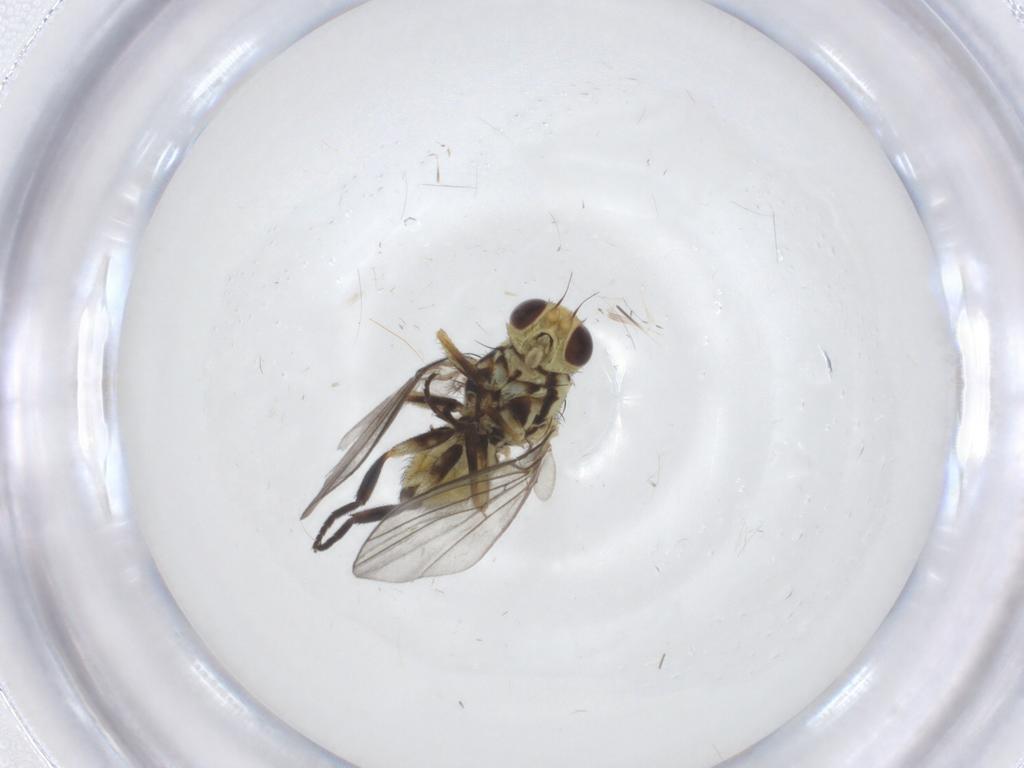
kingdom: Animalia
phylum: Arthropoda
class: Insecta
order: Diptera
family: Agromyzidae
